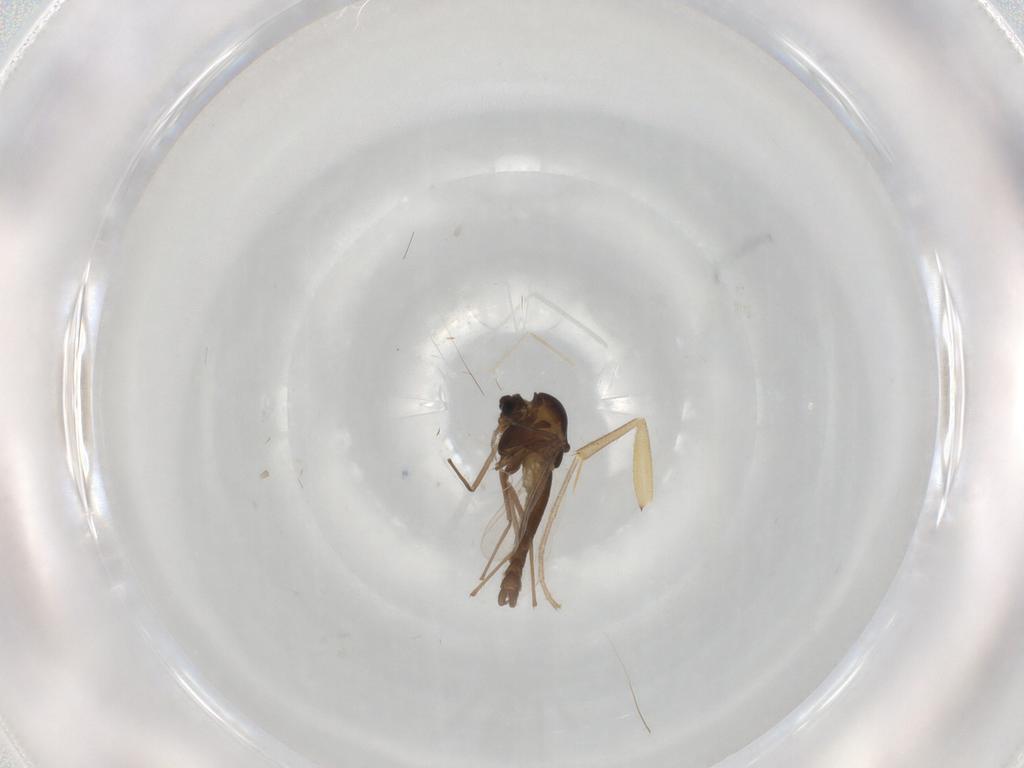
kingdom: Animalia
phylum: Arthropoda
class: Insecta
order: Diptera
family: Chironomidae
